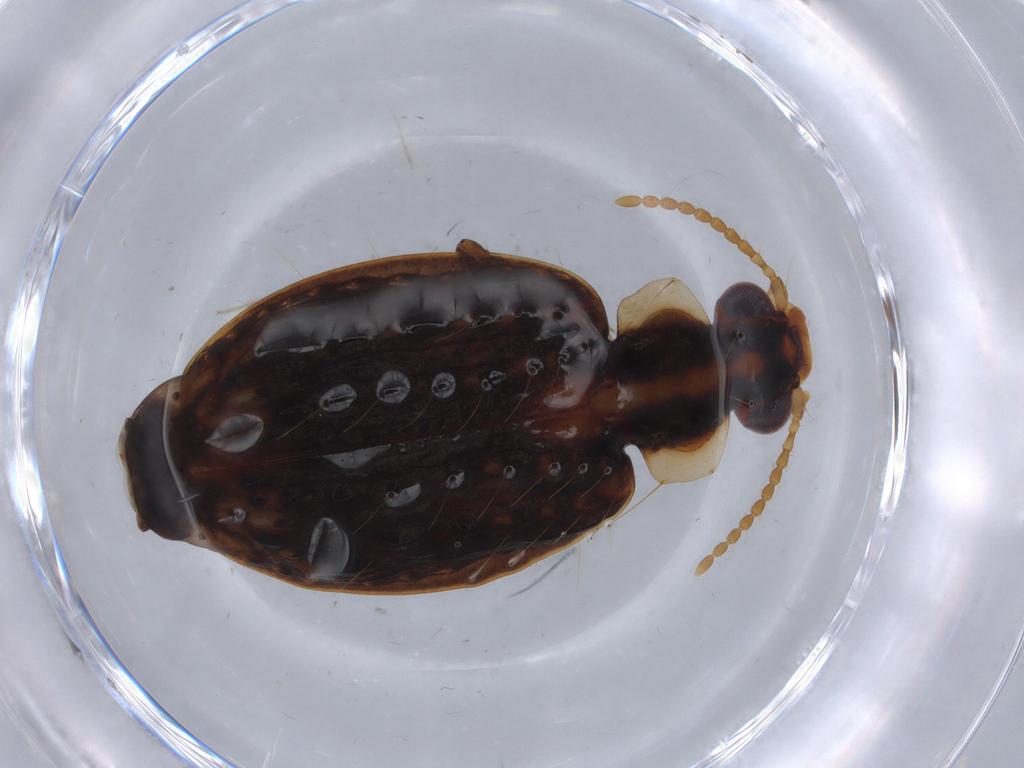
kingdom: Animalia
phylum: Arthropoda
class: Insecta
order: Coleoptera
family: Carabidae
